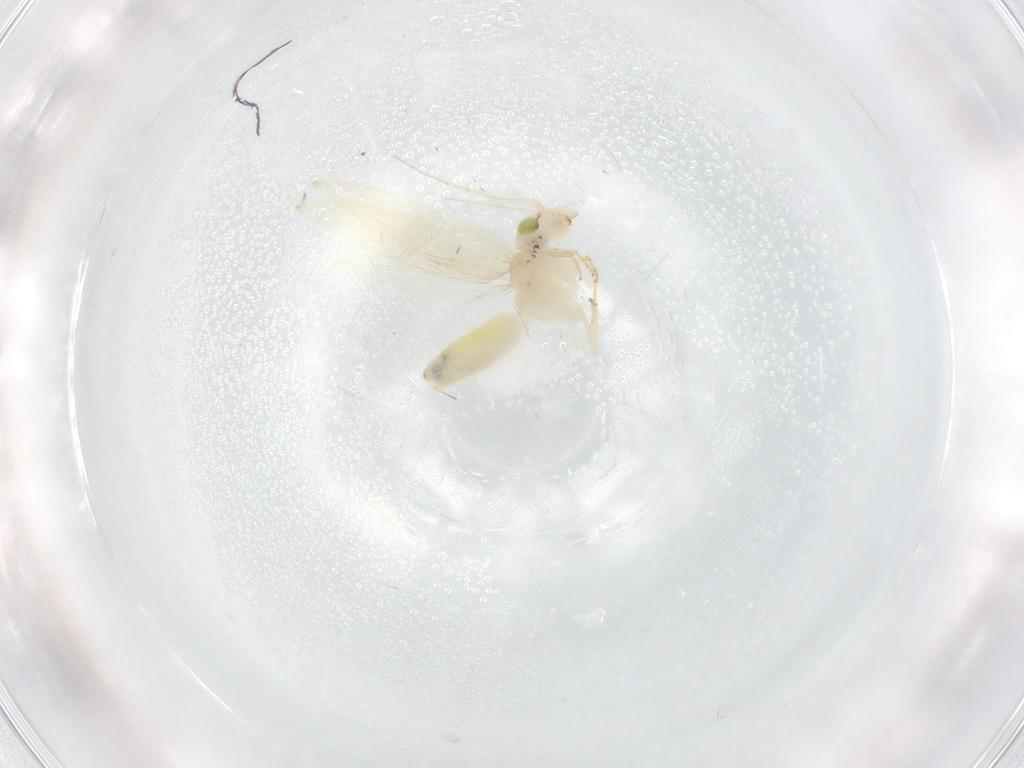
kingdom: Animalia
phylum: Arthropoda
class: Insecta
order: Psocodea
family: Lepidopsocidae
